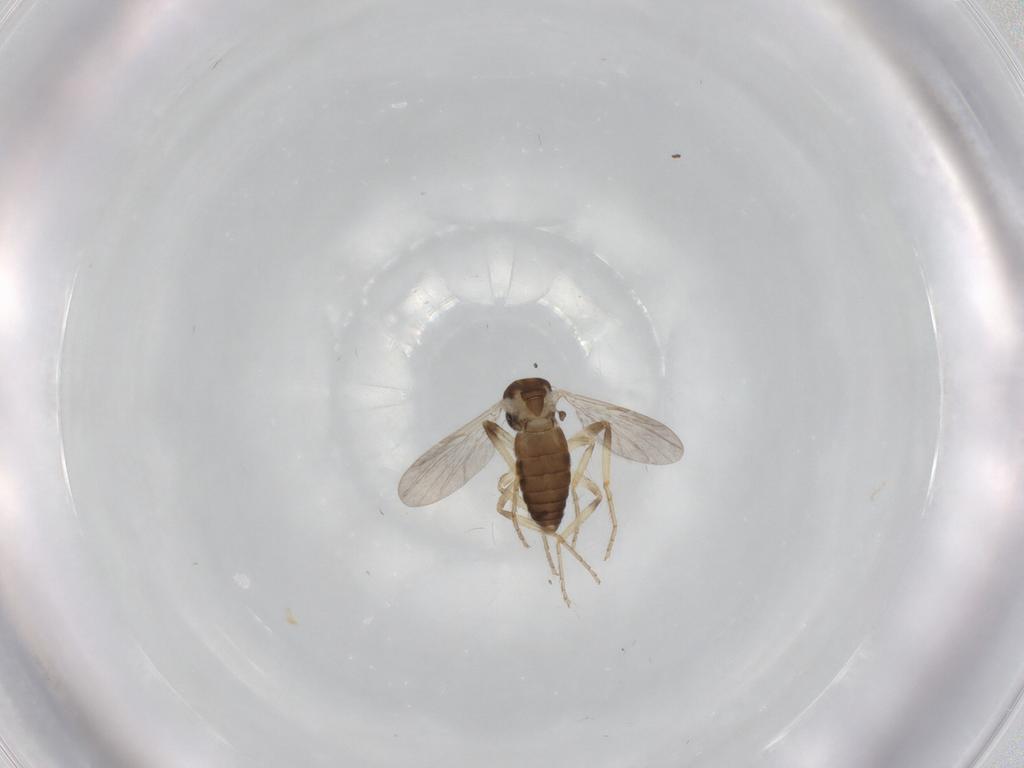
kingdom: Animalia
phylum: Arthropoda
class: Insecta
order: Diptera
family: Ceratopogonidae
